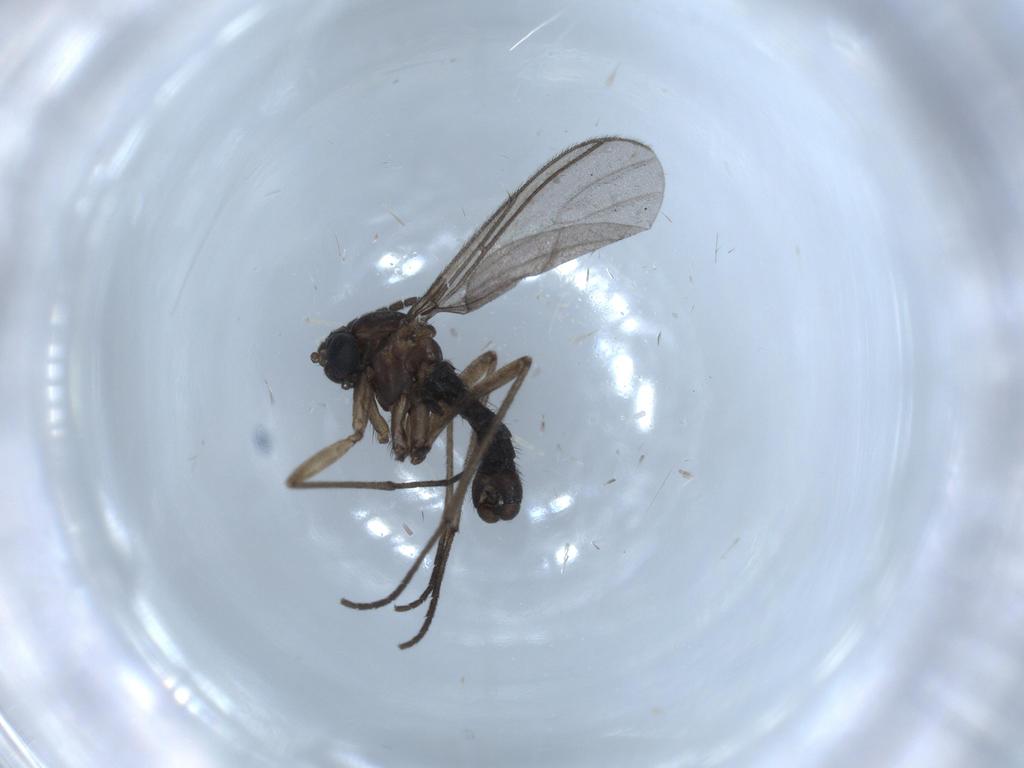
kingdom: Animalia
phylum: Arthropoda
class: Insecta
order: Diptera
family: Sciaridae
